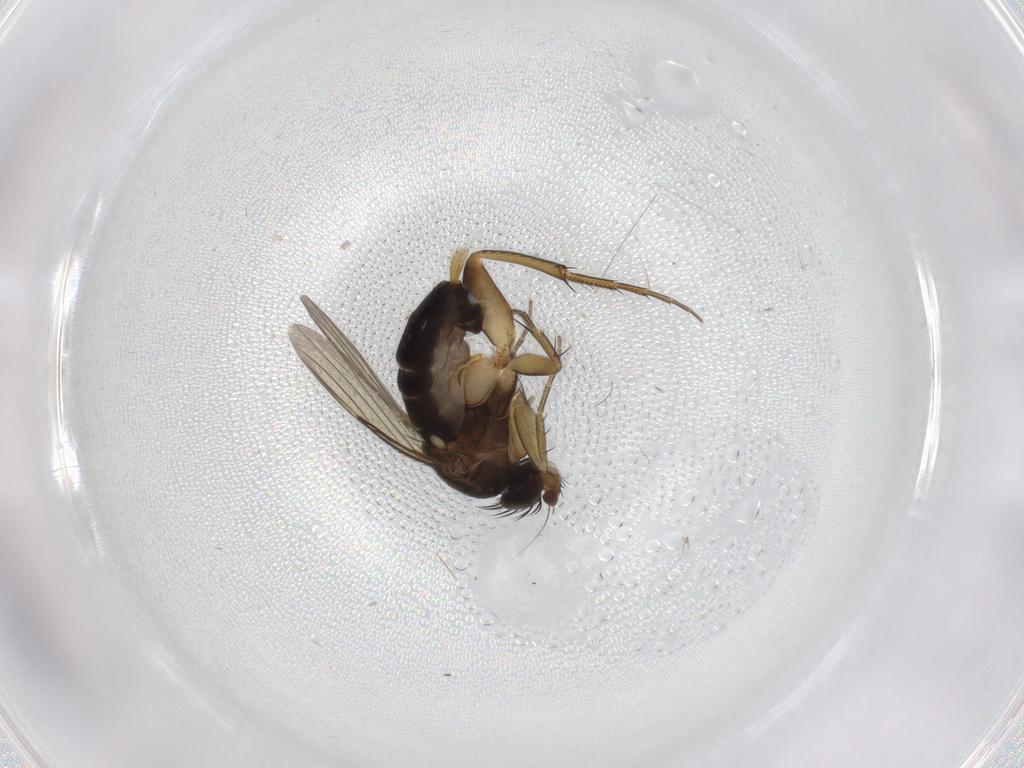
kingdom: Animalia
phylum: Arthropoda
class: Insecta
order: Diptera
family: Phoridae
